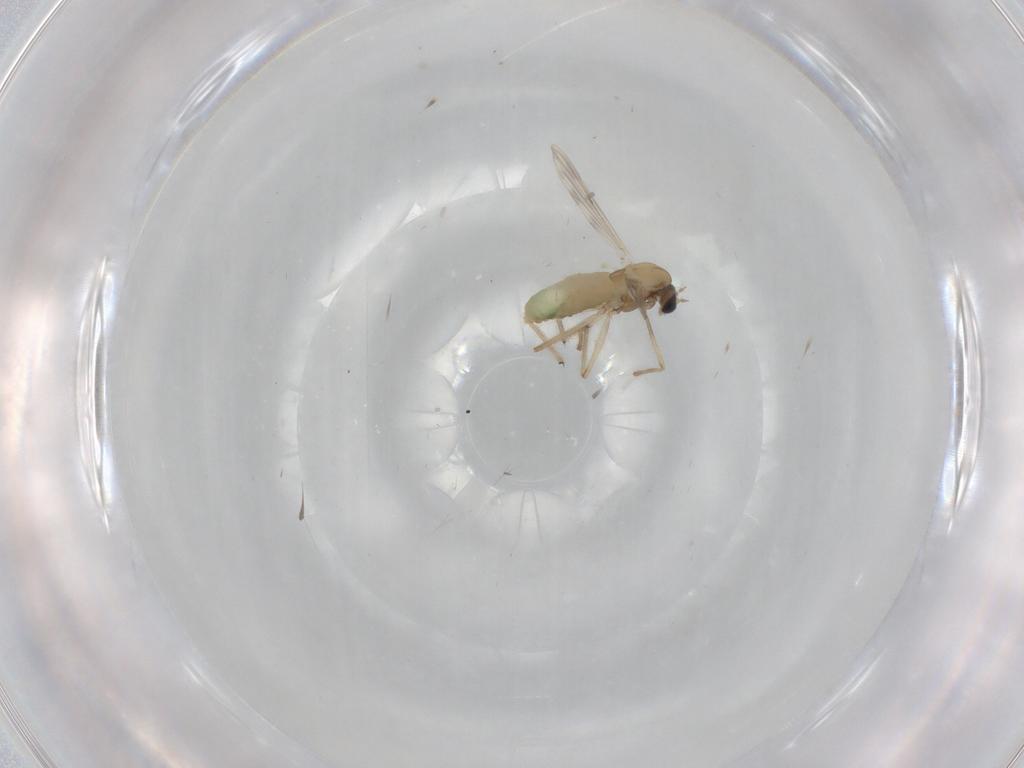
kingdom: Animalia
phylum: Arthropoda
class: Insecta
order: Diptera
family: Chironomidae
